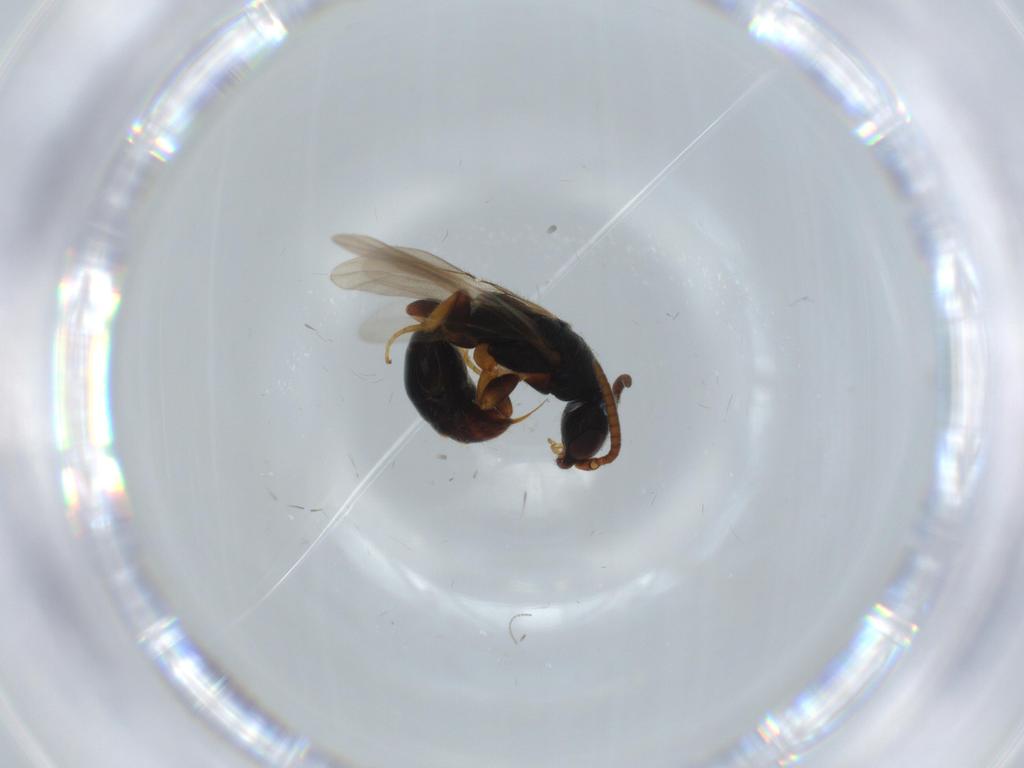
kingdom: Animalia
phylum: Arthropoda
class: Insecta
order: Hymenoptera
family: Bethylidae
